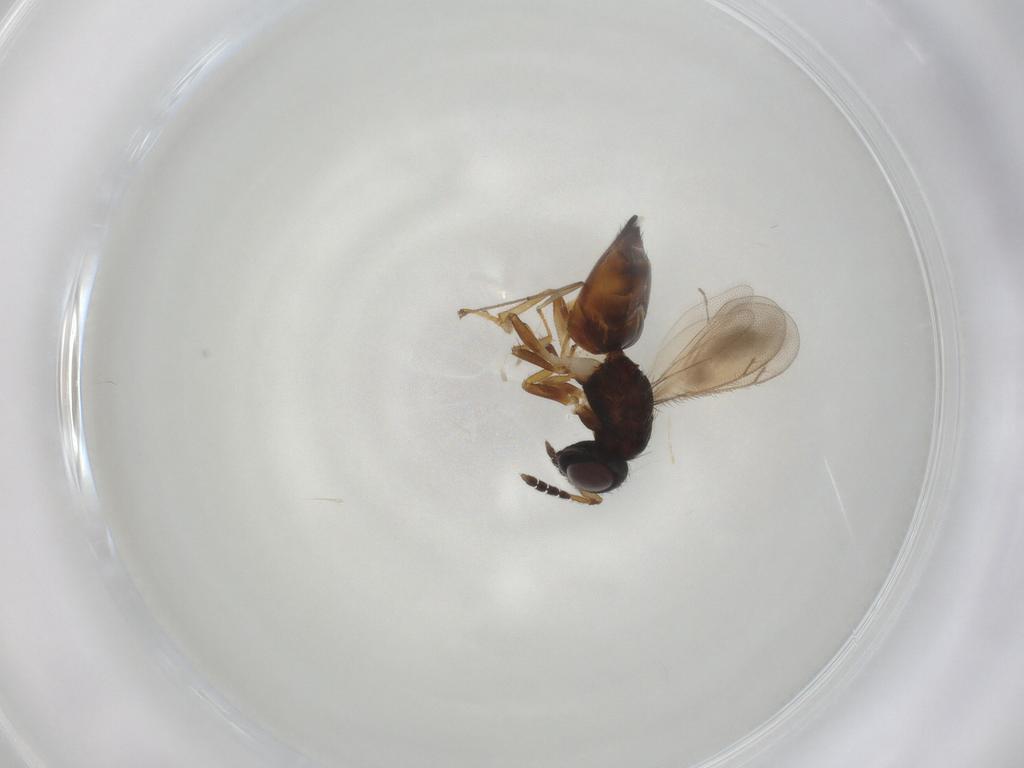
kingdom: Animalia
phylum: Arthropoda
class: Insecta
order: Hymenoptera
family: Eulophidae
